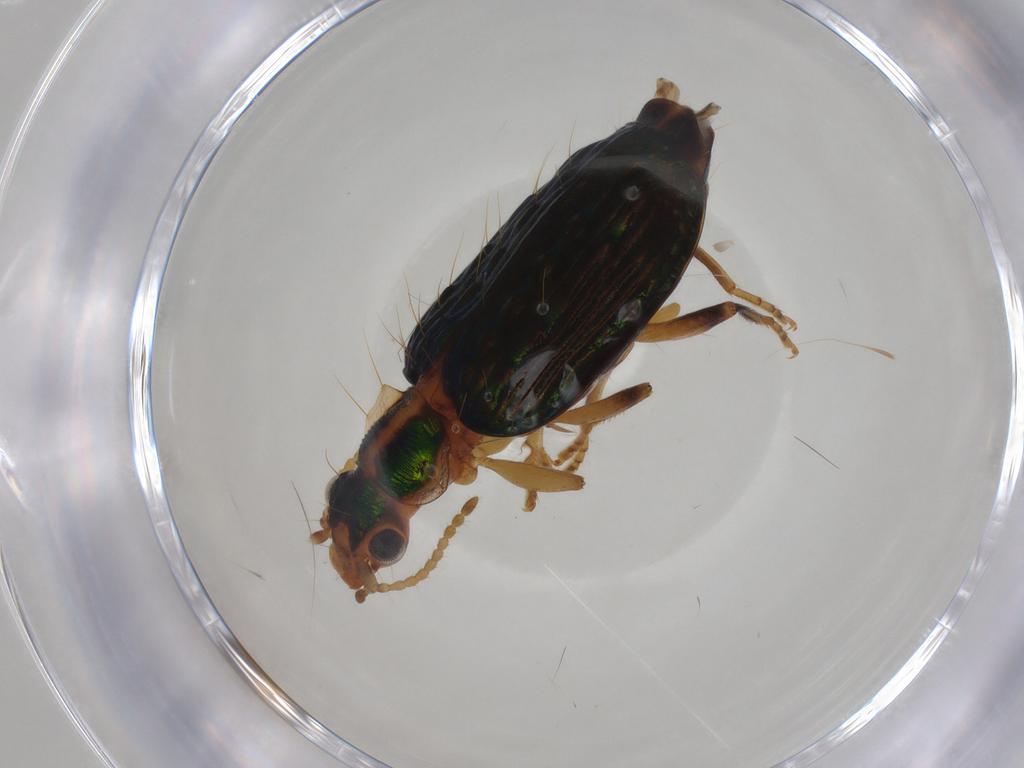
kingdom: Animalia
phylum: Arthropoda
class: Insecta
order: Coleoptera
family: Carabidae
